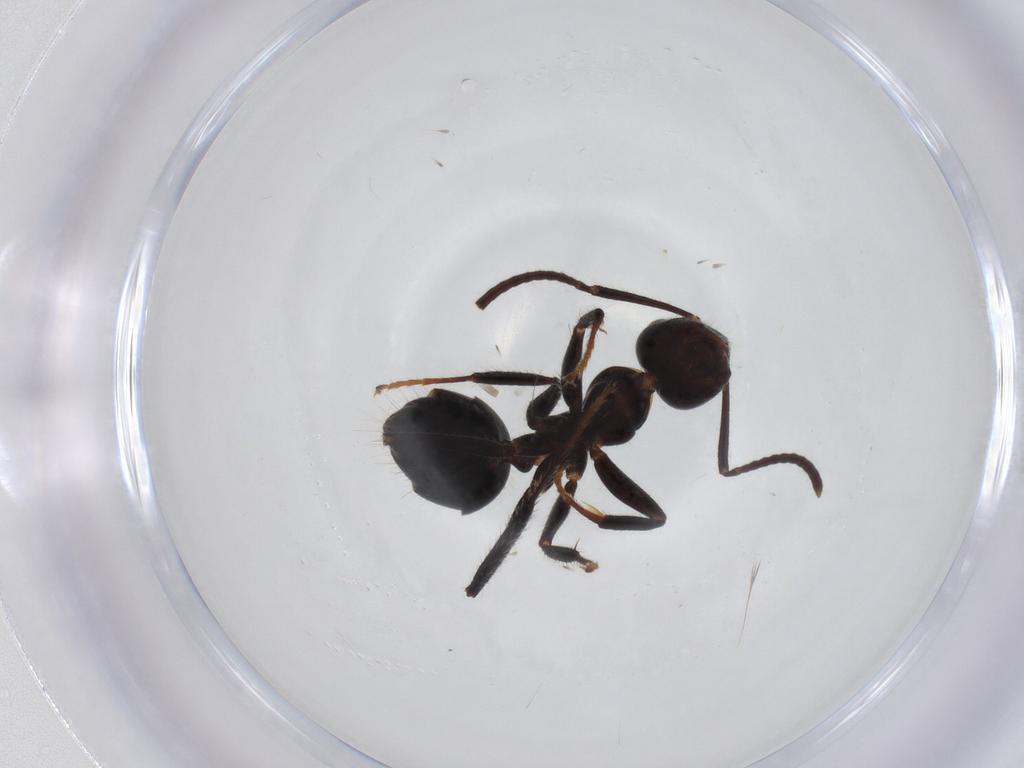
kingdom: Animalia
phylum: Arthropoda
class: Insecta
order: Hymenoptera
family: Formicidae
